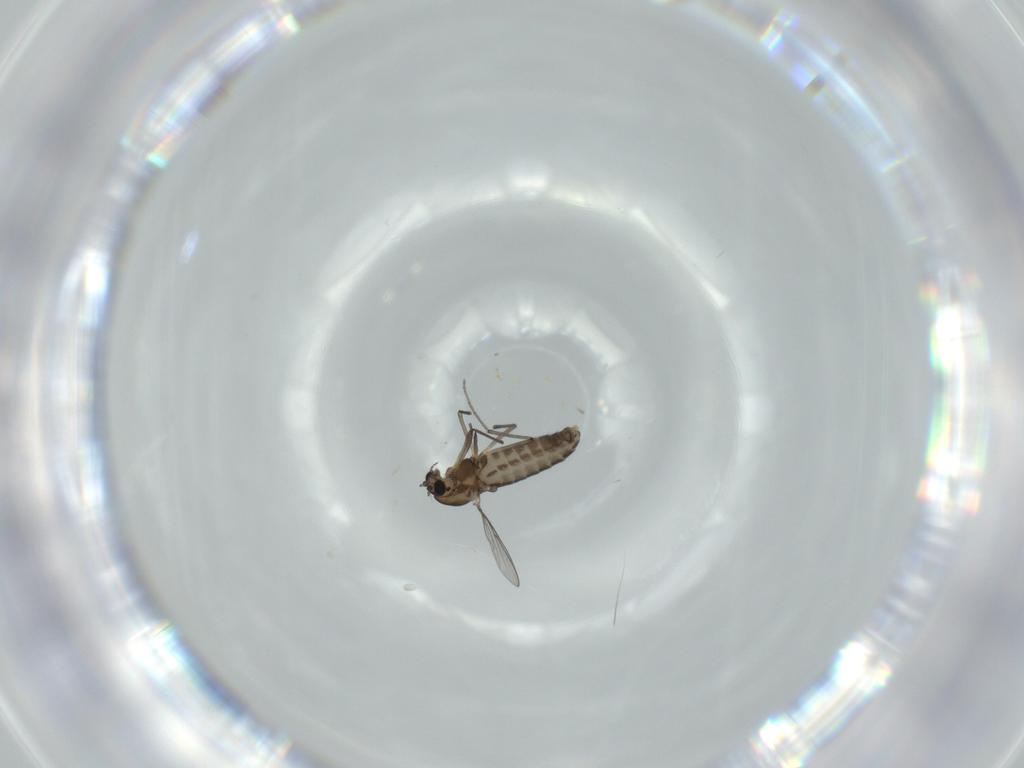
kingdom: Animalia
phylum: Arthropoda
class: Insecta
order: Diptera
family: Chironomidae
